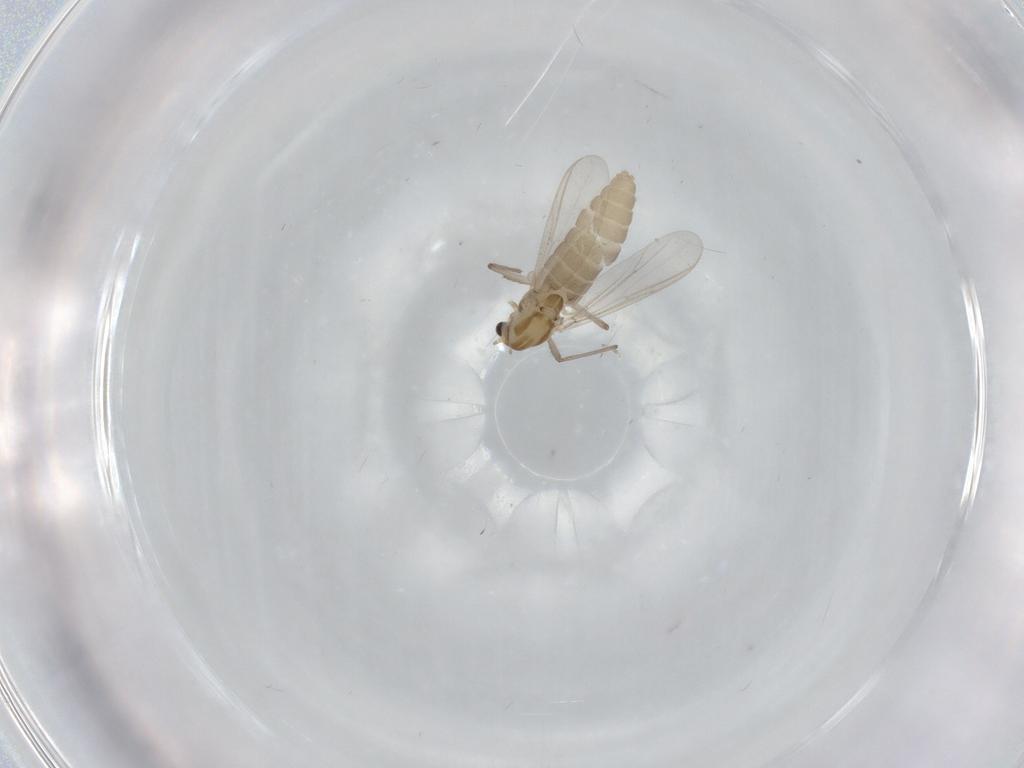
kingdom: Animalia
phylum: Arthropoda
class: Insecta
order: Diptera
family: Chironomidae
